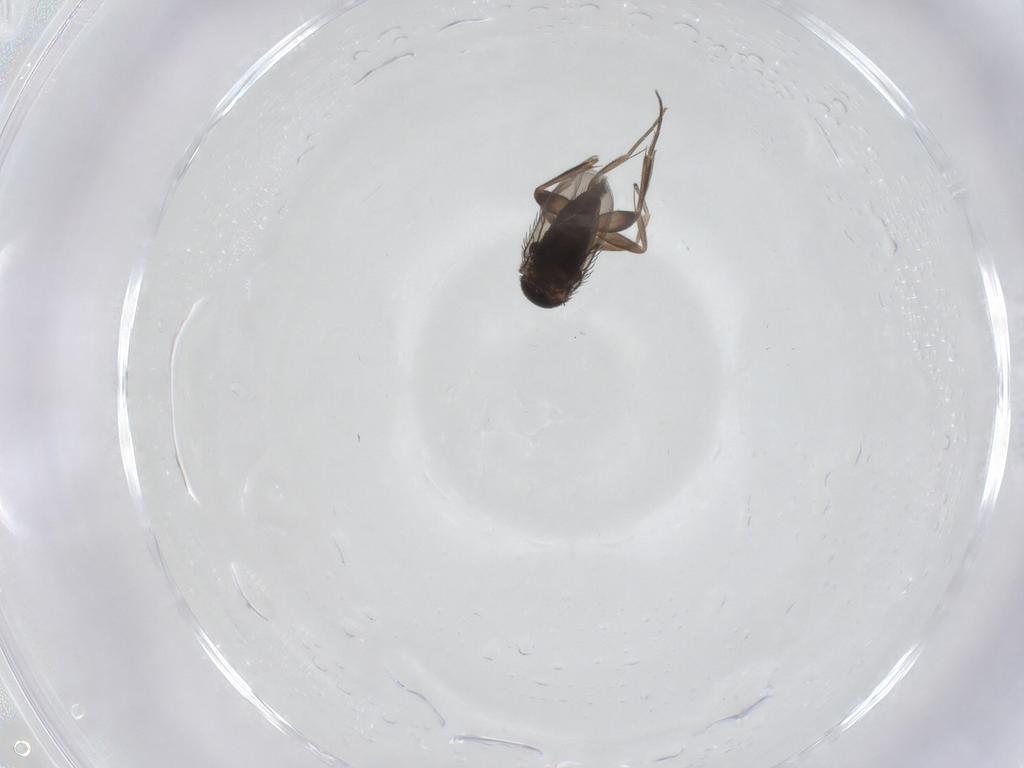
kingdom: Animalia
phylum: Arthropoda
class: Insecta
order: Diptera
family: Phoridae
